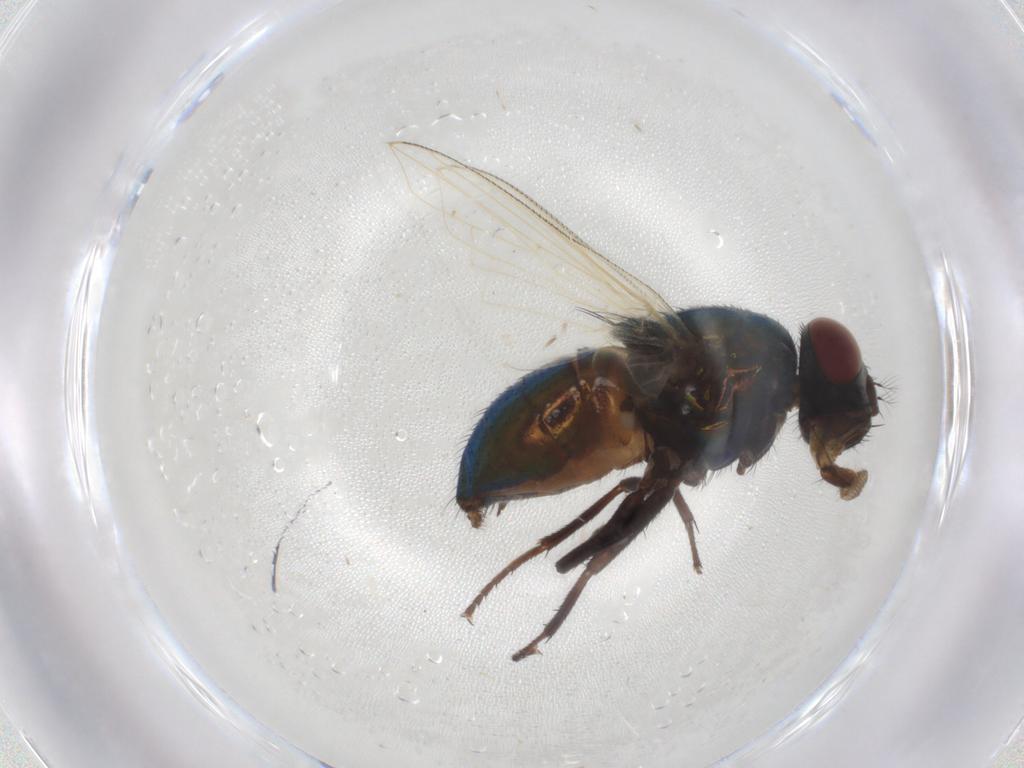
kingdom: Animalia
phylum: Arthropoda
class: Insecta
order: Diptera
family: Muscidae
